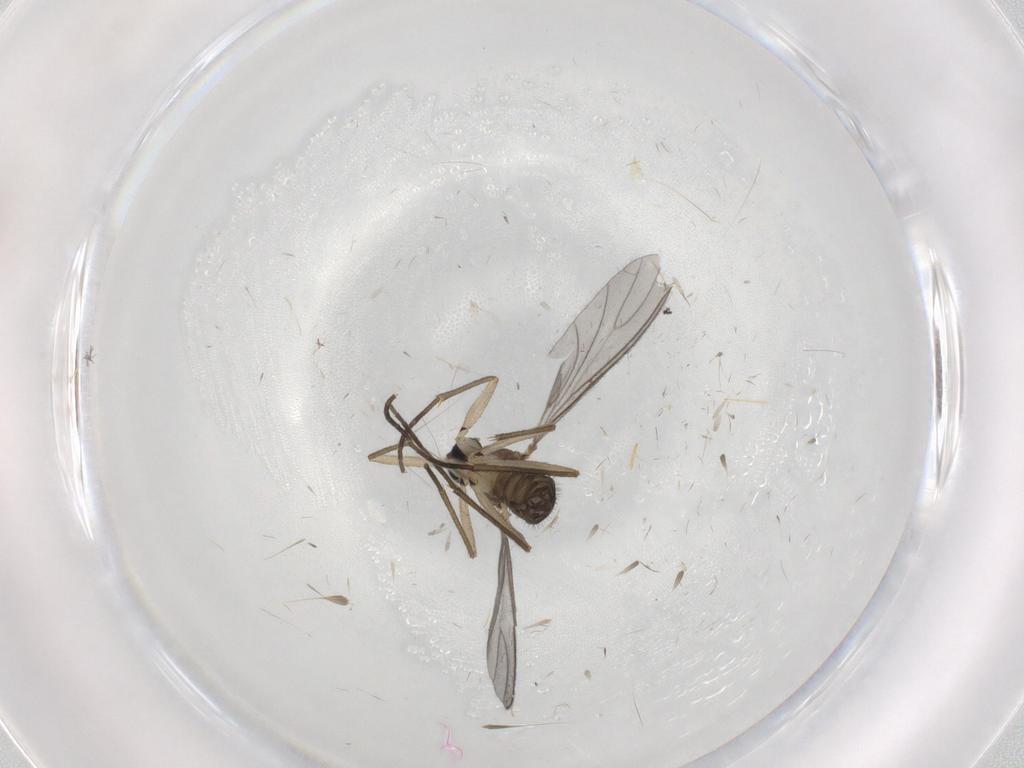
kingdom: Animalia
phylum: Arthropoda
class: Insecta
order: Diptera
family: Sciaridae
